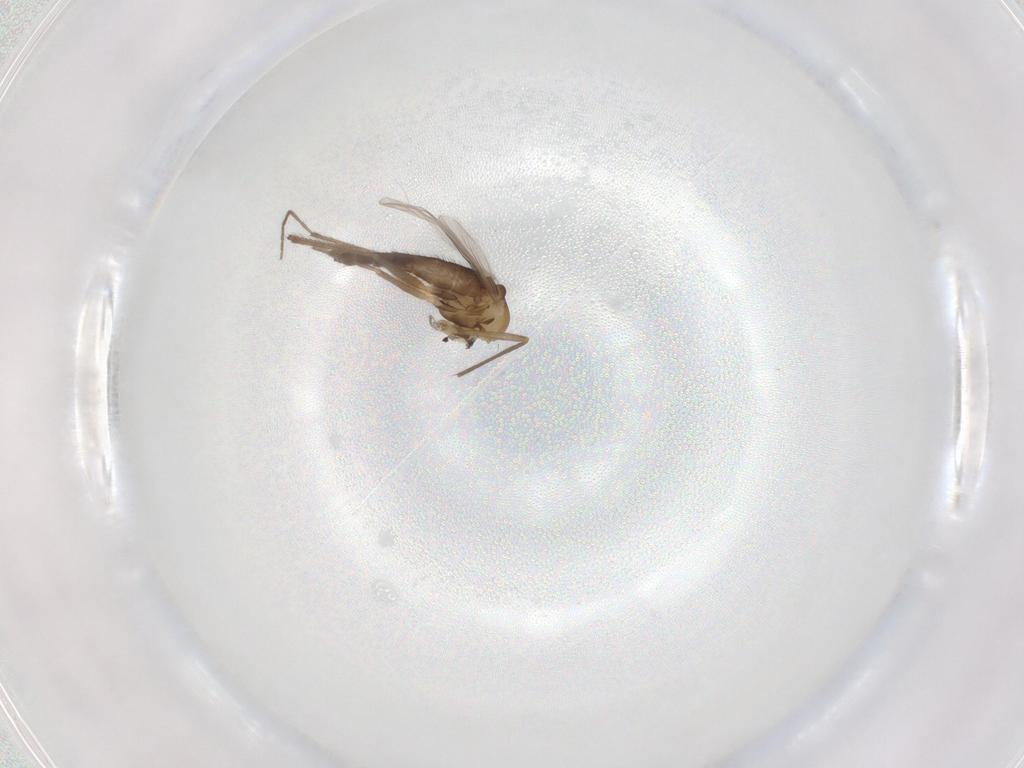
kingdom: Animalia
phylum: Arthropoda
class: Insecta
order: Diptera
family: Chironomidae
